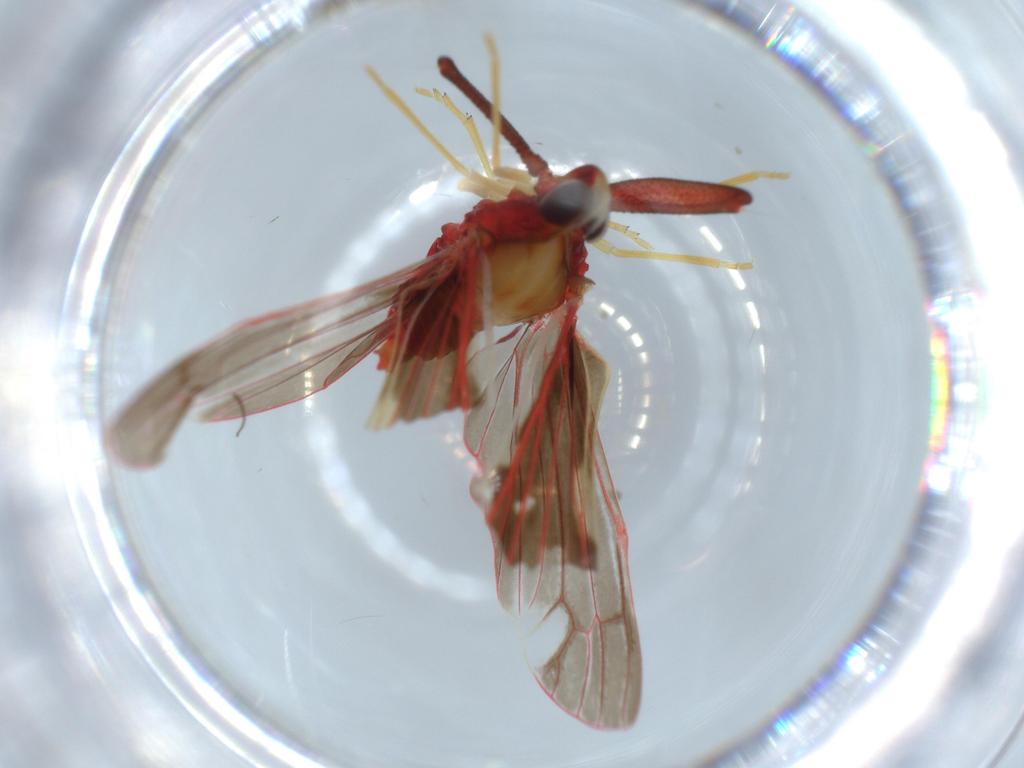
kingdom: Animalia
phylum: Arthropoda
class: Insecta
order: Hemiptera
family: Derbidae
